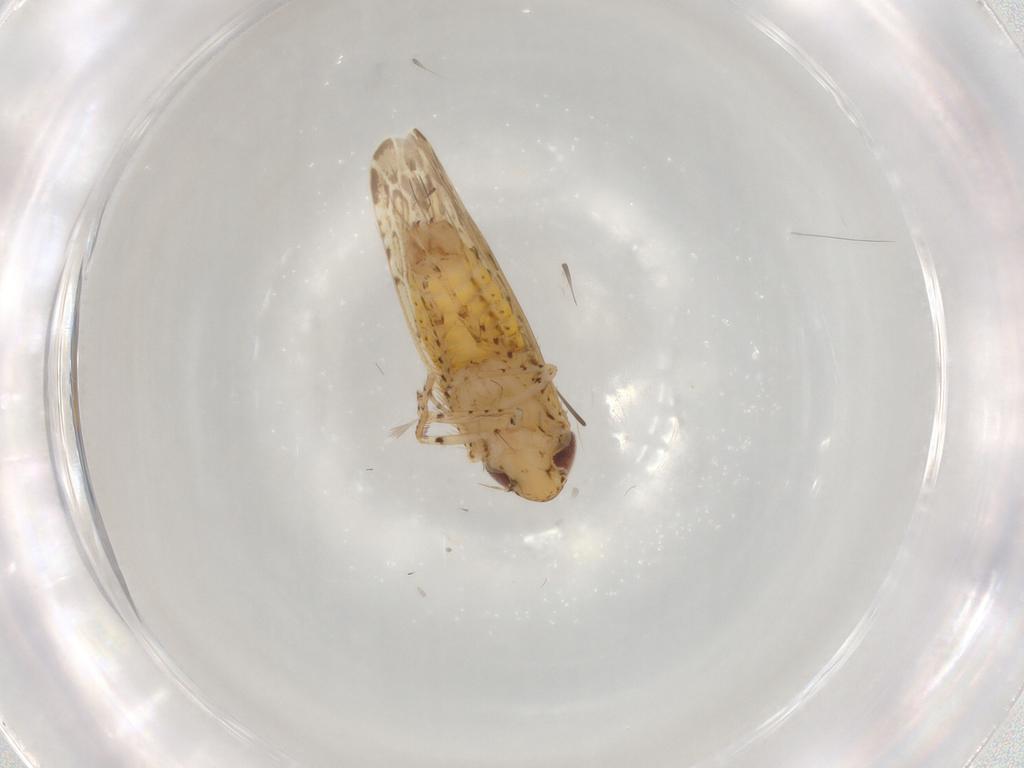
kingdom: Animalia
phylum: Arthropoda
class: Insecta
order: Hemiptera
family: Cicadellidae
